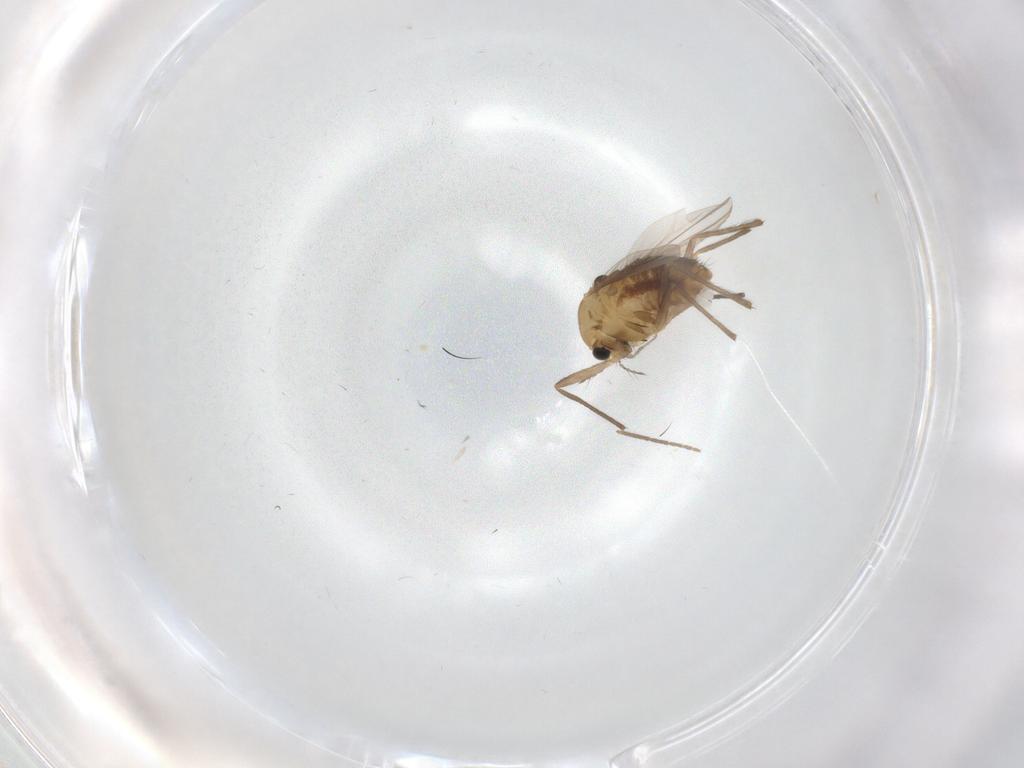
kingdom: Animalia
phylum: Arthropoda
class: Insecta
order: Diptera
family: Chironomidae
